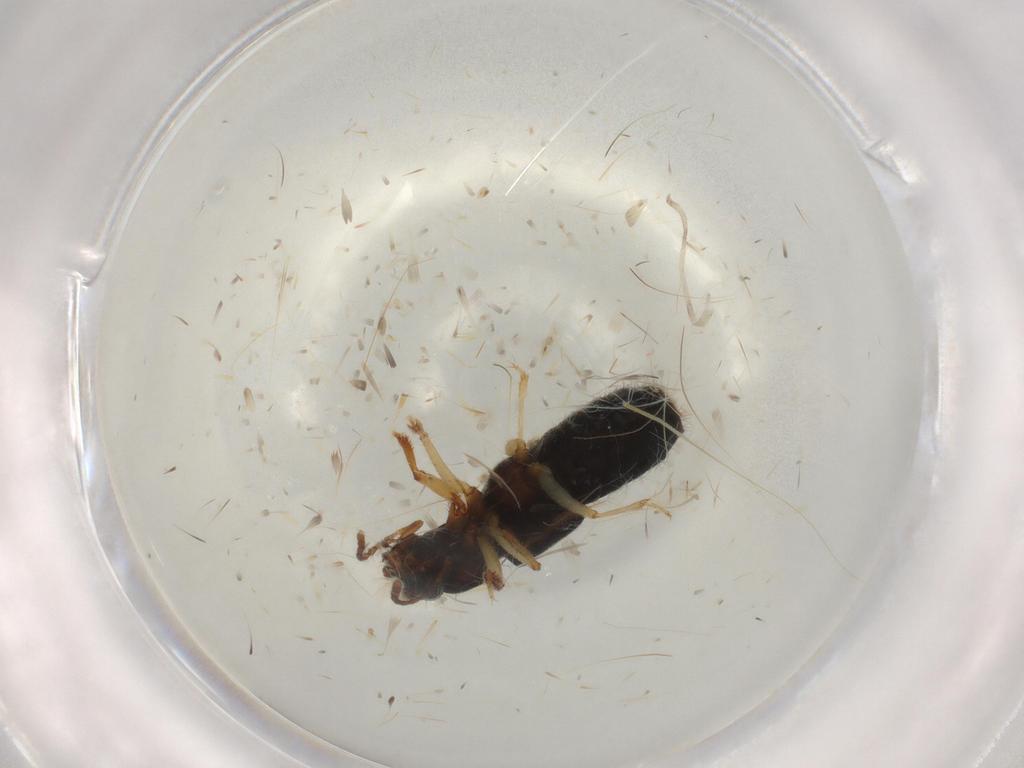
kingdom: Animalia
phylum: Arthropoda
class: Insecta
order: Coleoptera
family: Staphylinidae
